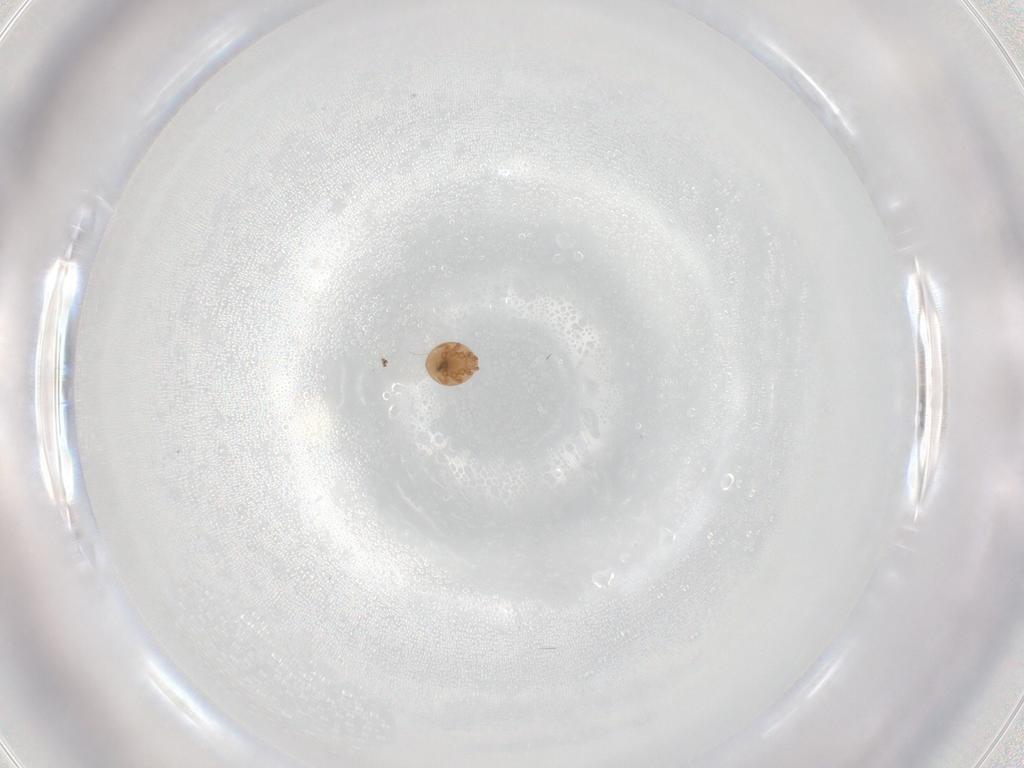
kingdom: Animalia
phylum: Arthropoda
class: Arachnida
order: Mesostigmata
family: Trematuridae
